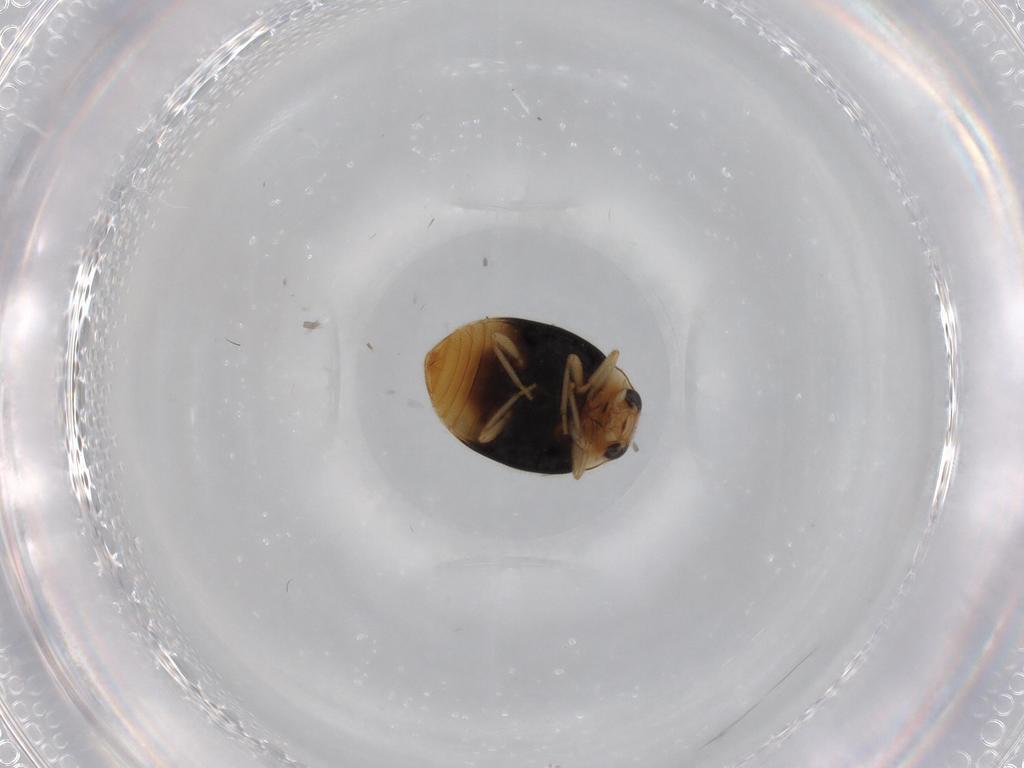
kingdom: Animalia
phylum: Arthropoda
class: Insecta
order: Coleoptera
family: Coccinellidae
